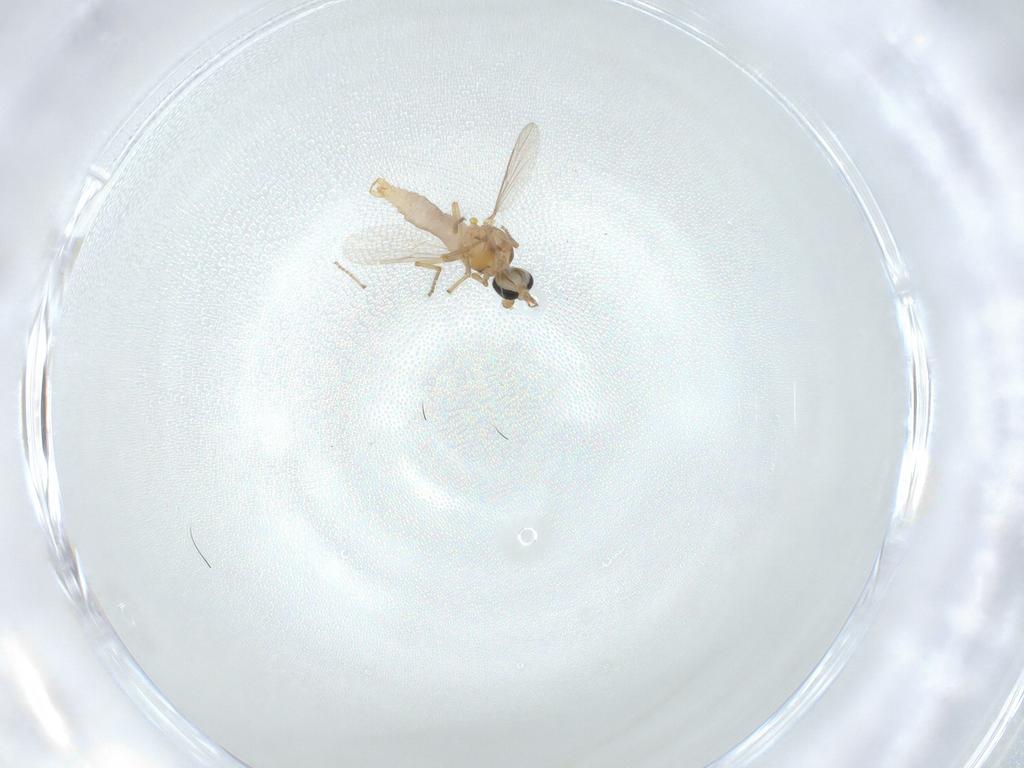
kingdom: Animalia
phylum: Arthropoda
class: Insecta
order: Diptera
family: Ceratopogonidae
